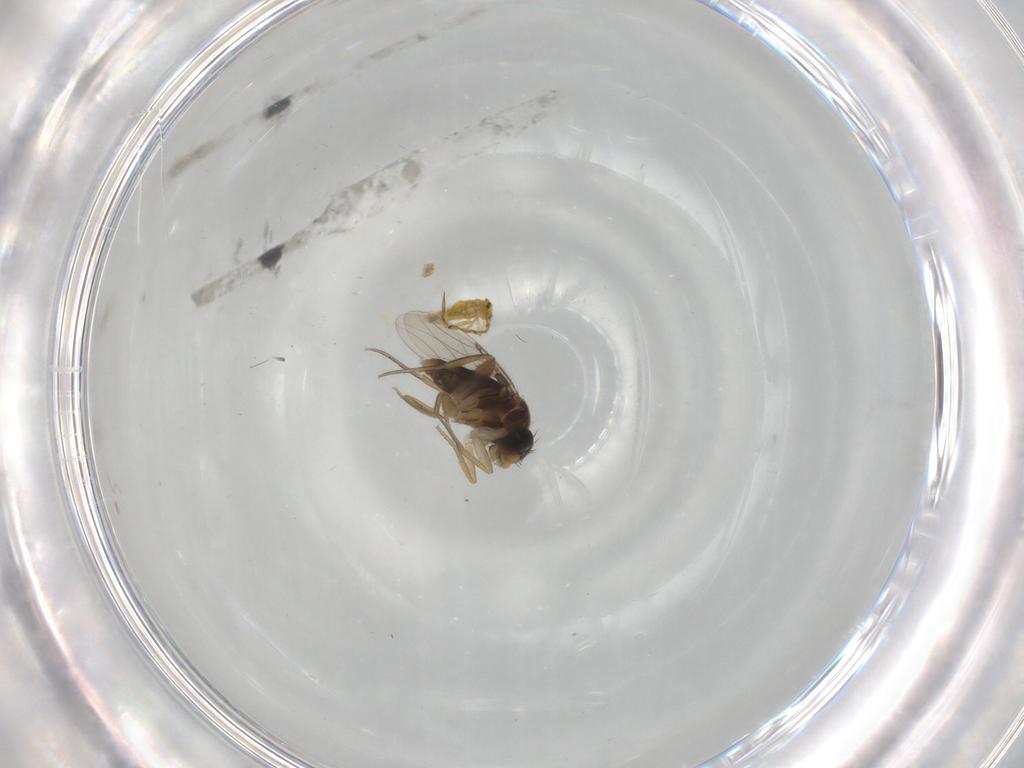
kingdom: Animalia
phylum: Arthropoda
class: Insecta
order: Diptera
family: Phoridae
